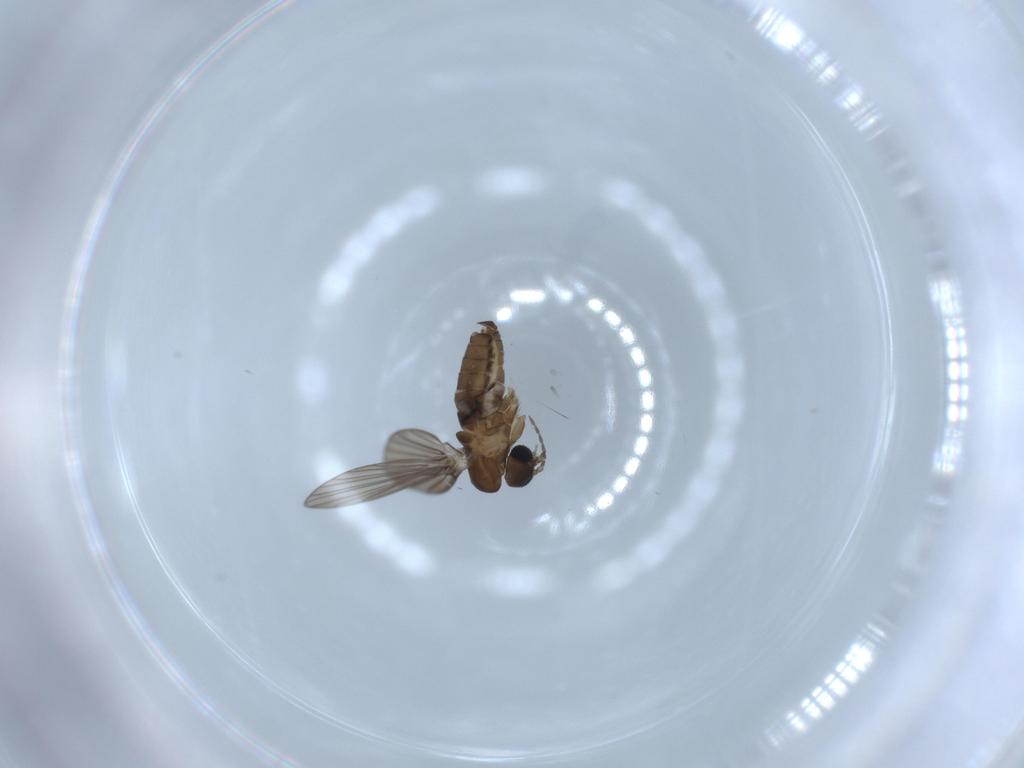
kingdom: Animalia
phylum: Arthropoda
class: Insecta
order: Diptera
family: Psychodidae
